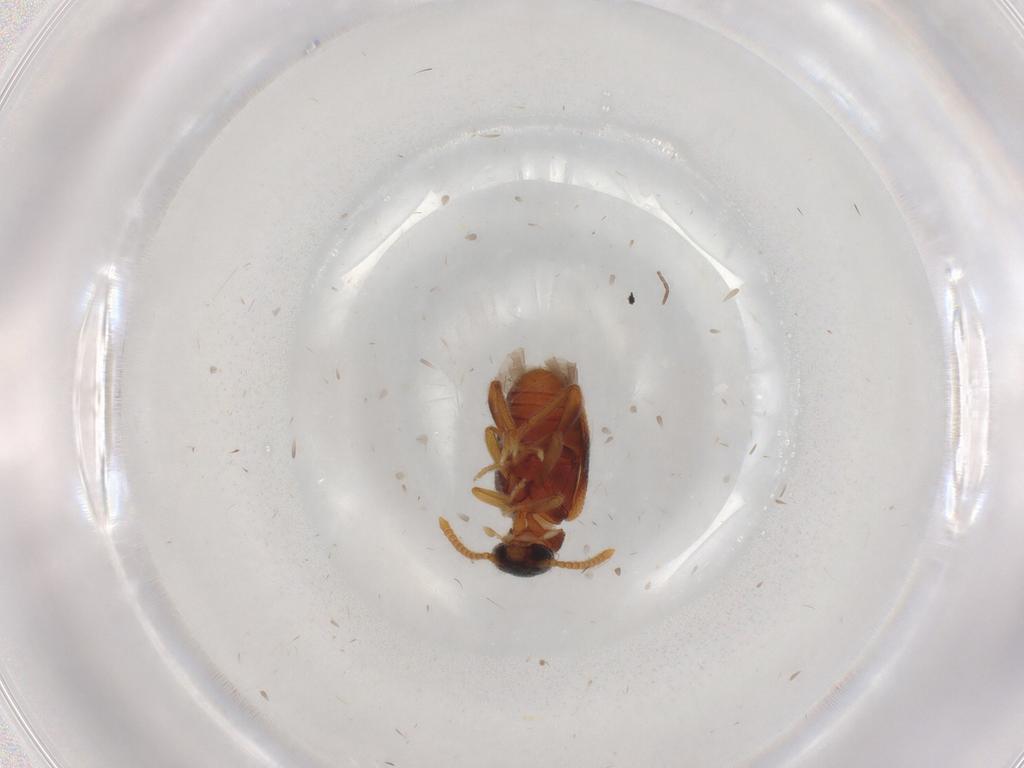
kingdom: Animalia
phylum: Arthropoda
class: Insecta
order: Coleoptera
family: Aderidae
